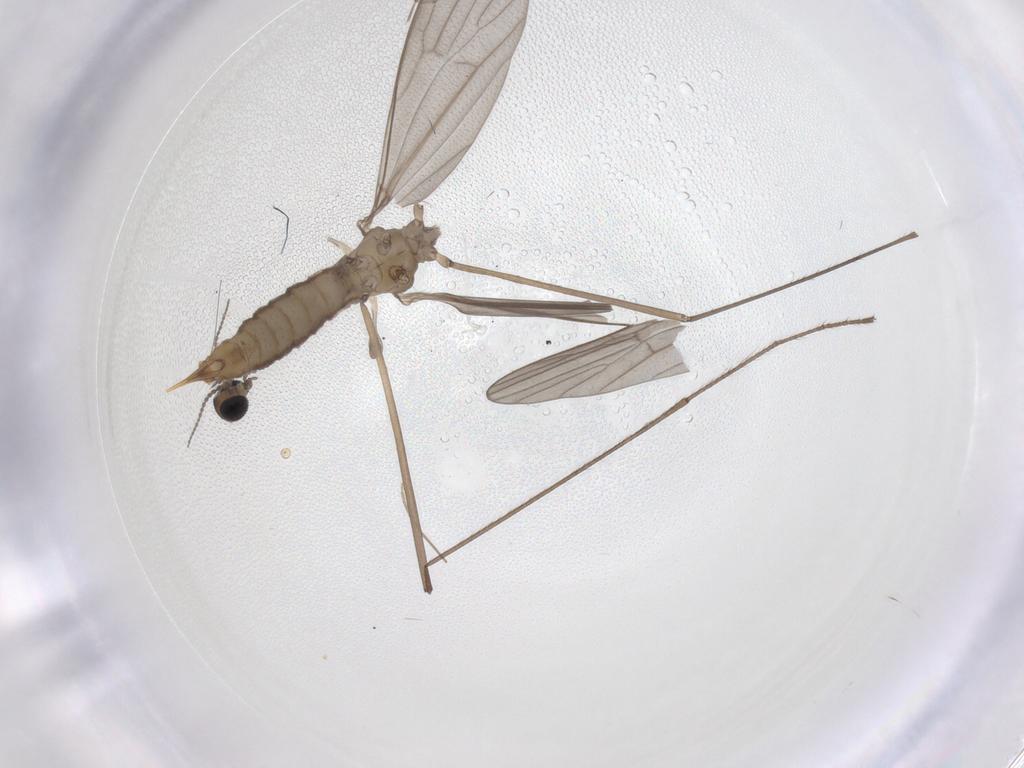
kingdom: Animalia
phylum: Arthropoda
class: Insecta
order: Diptera
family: Limoniidae
